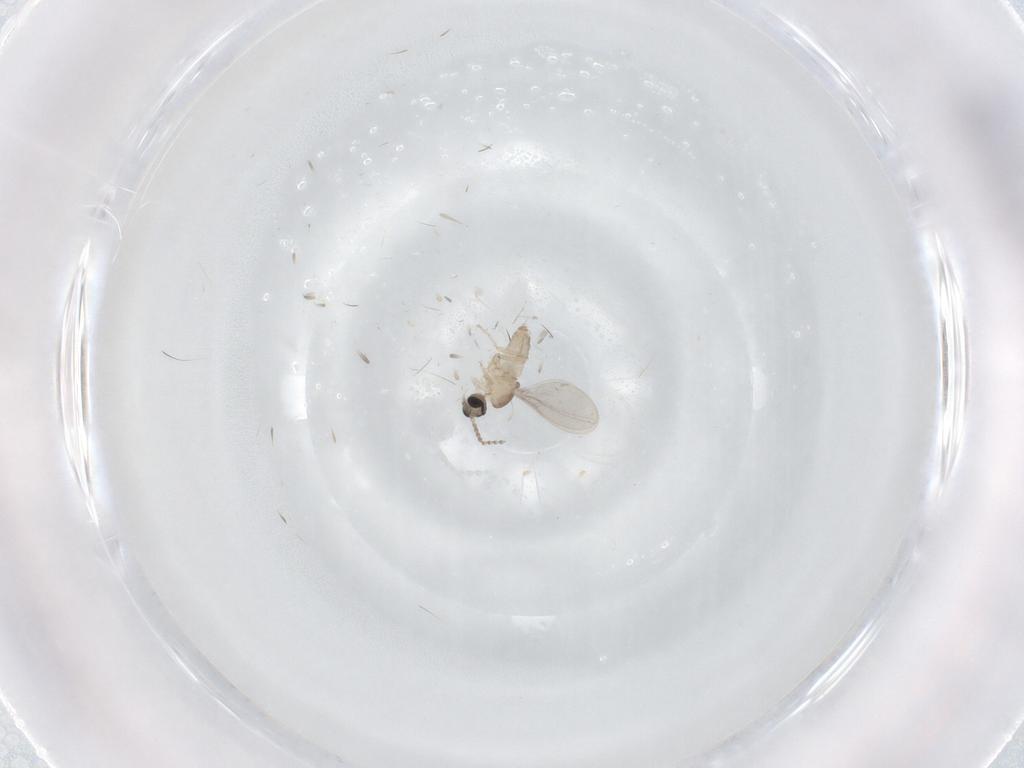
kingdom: Animalia
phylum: Arthropoda
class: Insecta
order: Diptera
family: Cecidomyiidae
